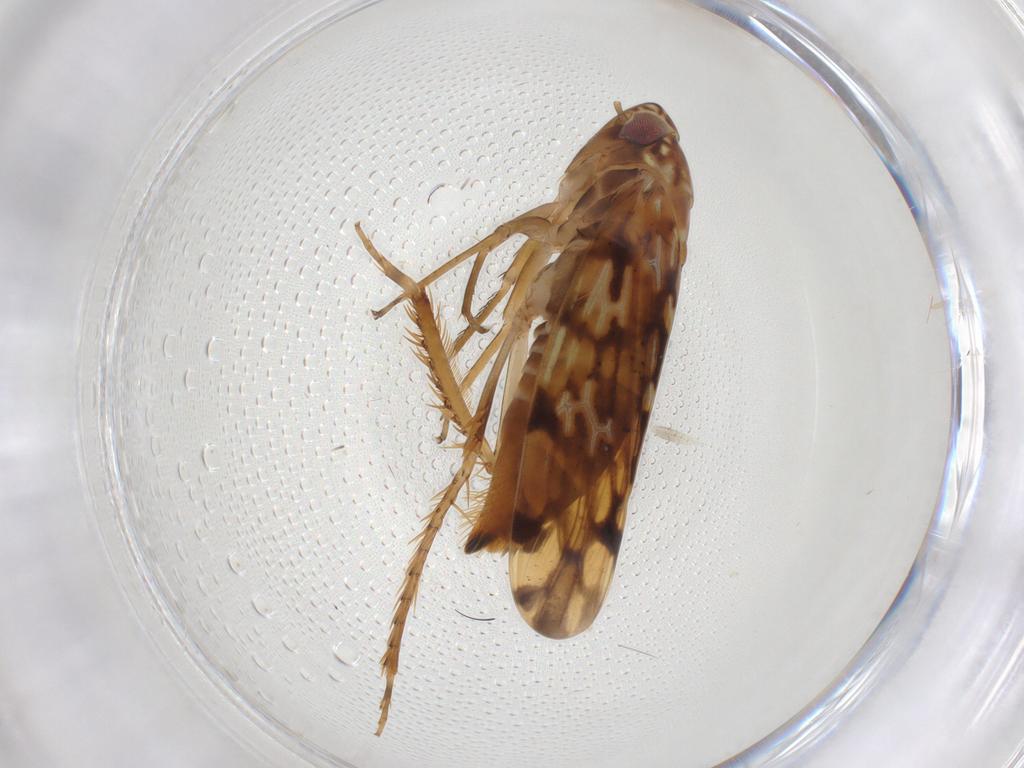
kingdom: Animalia
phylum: Arthropoda
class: Insecta
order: Hemiptera
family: Cicadellidae
